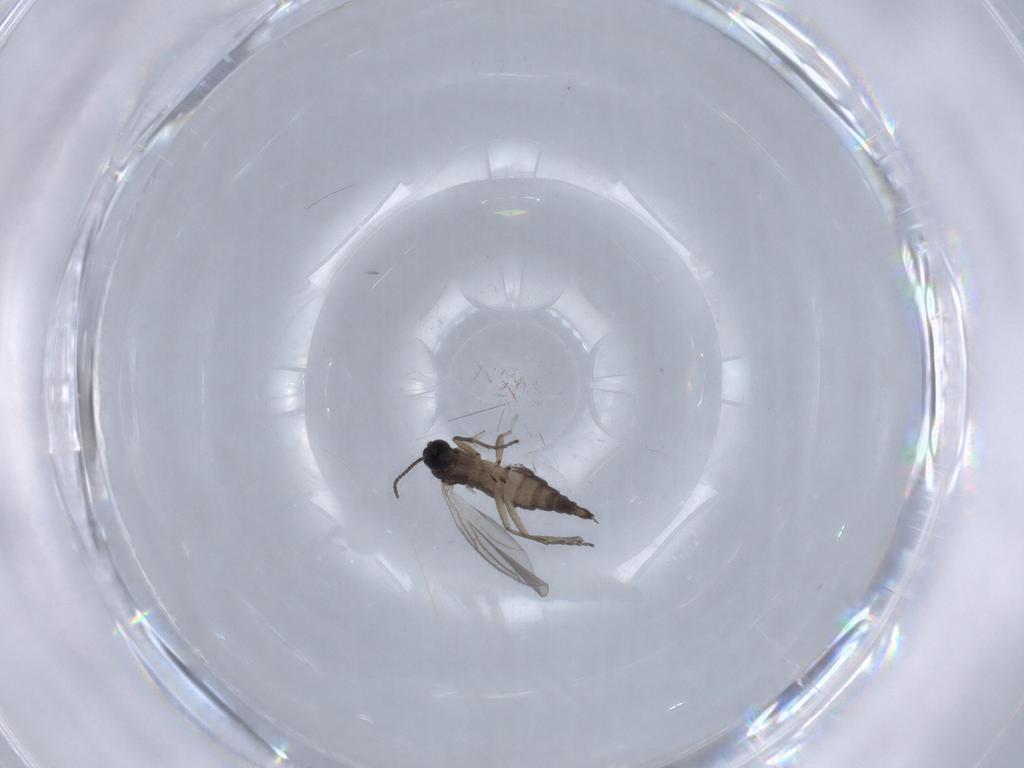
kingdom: Animalia
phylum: Arthropoda
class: Insecta
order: Diptera
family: Sciaridae
